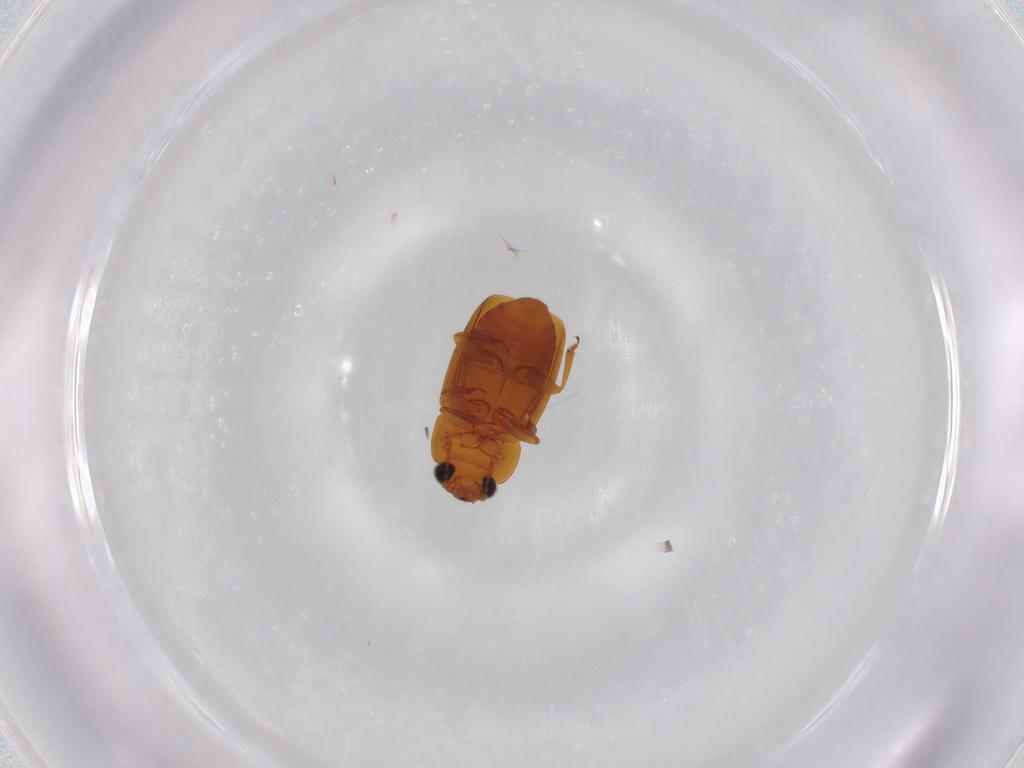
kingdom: Animalia
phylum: Arthropoda
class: Insecta
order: Coleoptera
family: Nitidulidae
